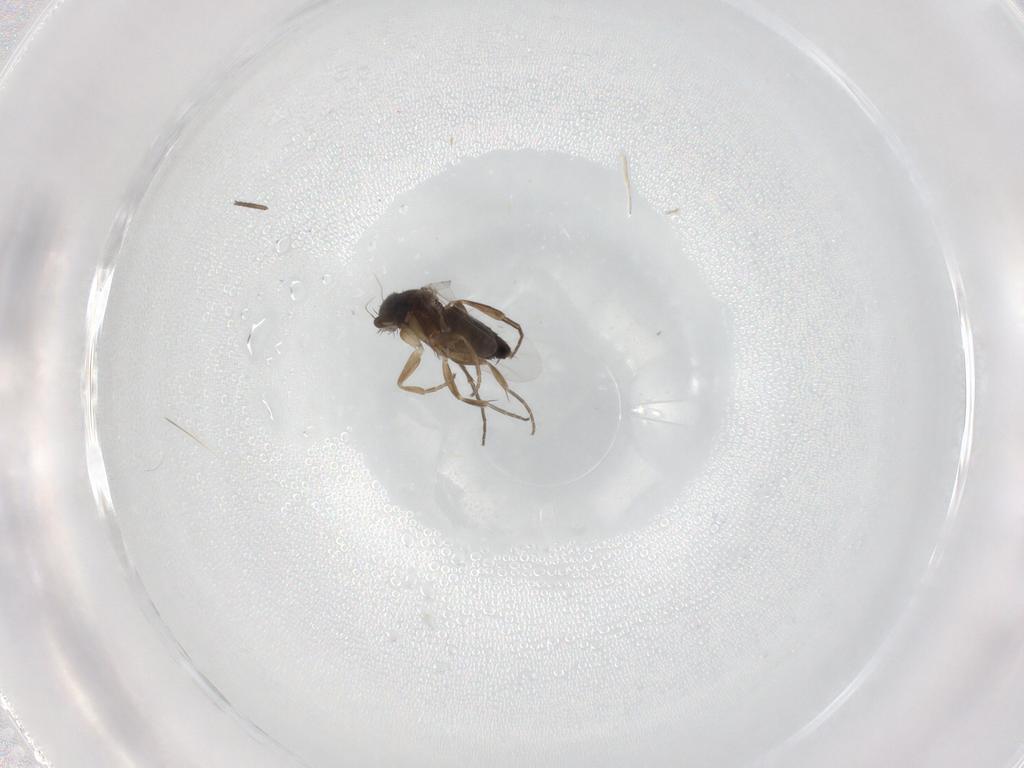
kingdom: Animalia
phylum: Arthropoda
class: Insecta
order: Diptera
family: Phoridae
